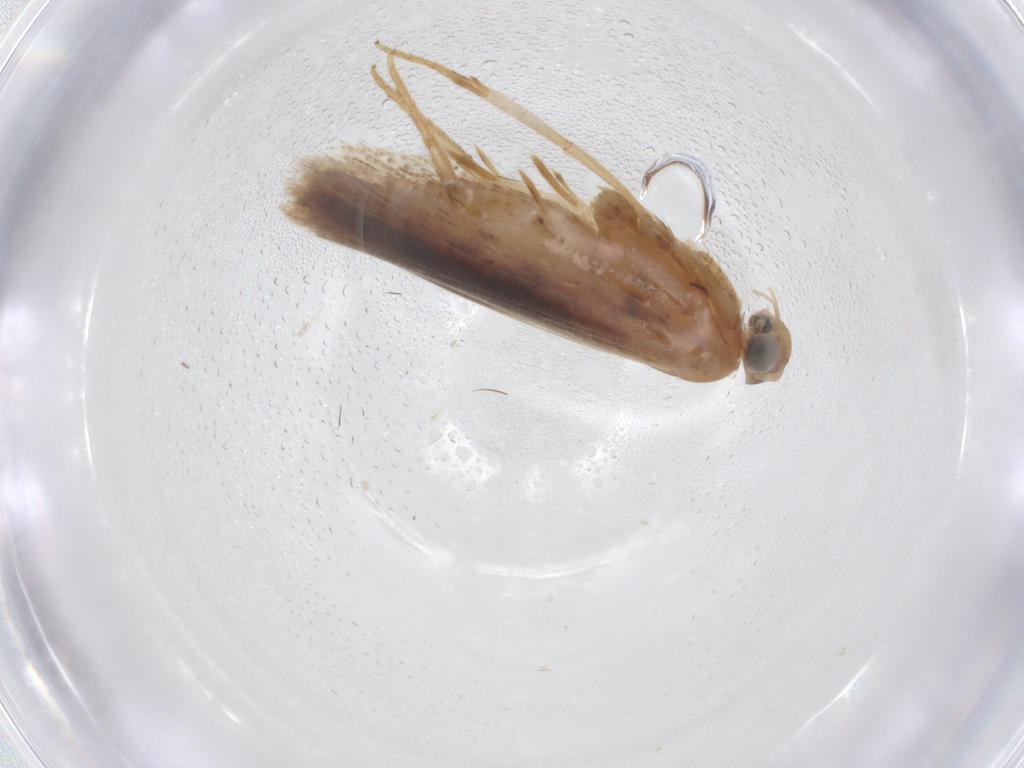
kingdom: Animalia
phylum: Arthropoda
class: Insecta
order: Lepidoptera
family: Gelechiidae
